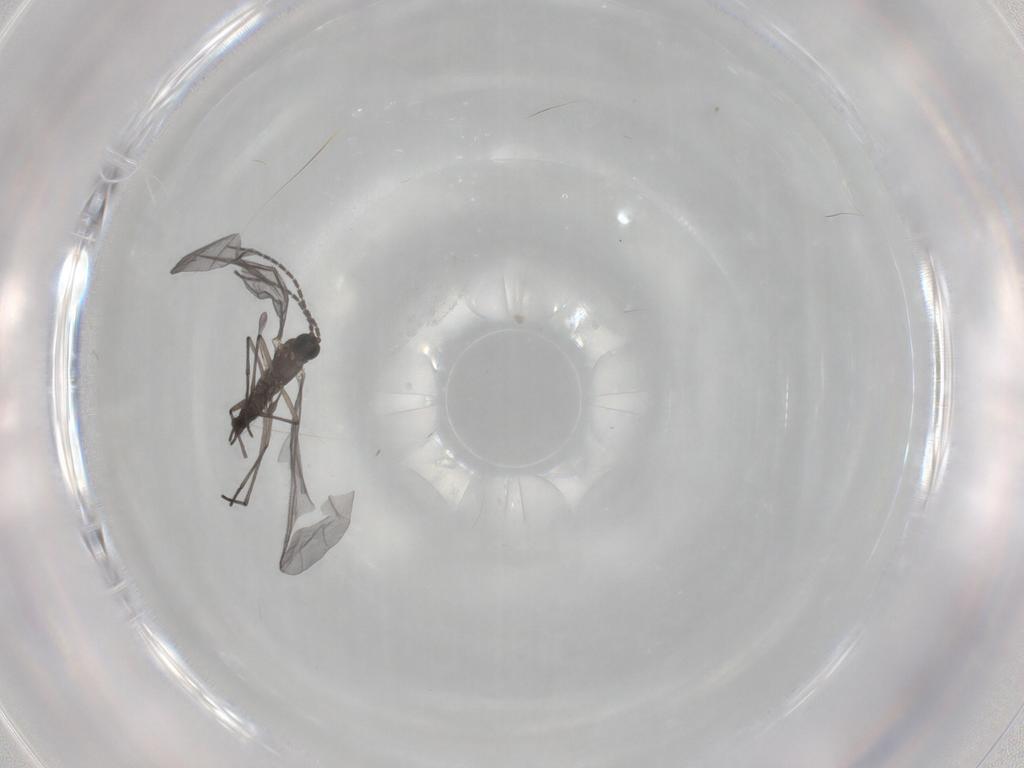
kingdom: Animalia
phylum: Arthropoda
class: Insecta
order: Diptera
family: Sciaridae
